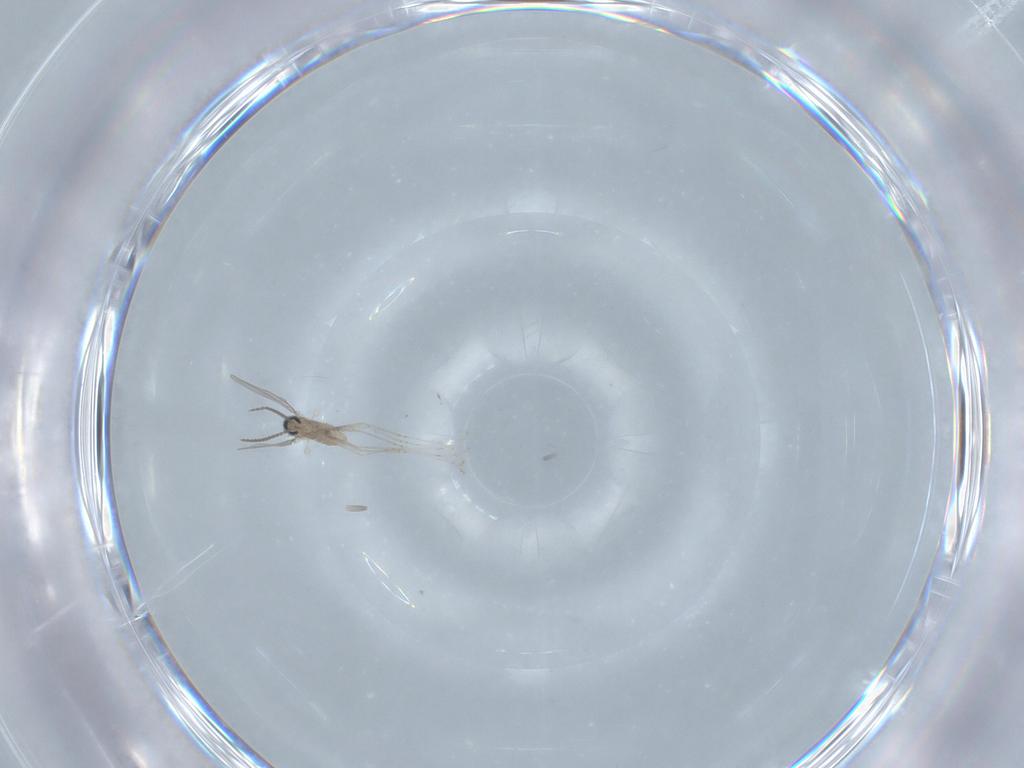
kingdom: Animalia
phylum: Arthropoda
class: Insecta
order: Diptera
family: Cecidomyiidae
